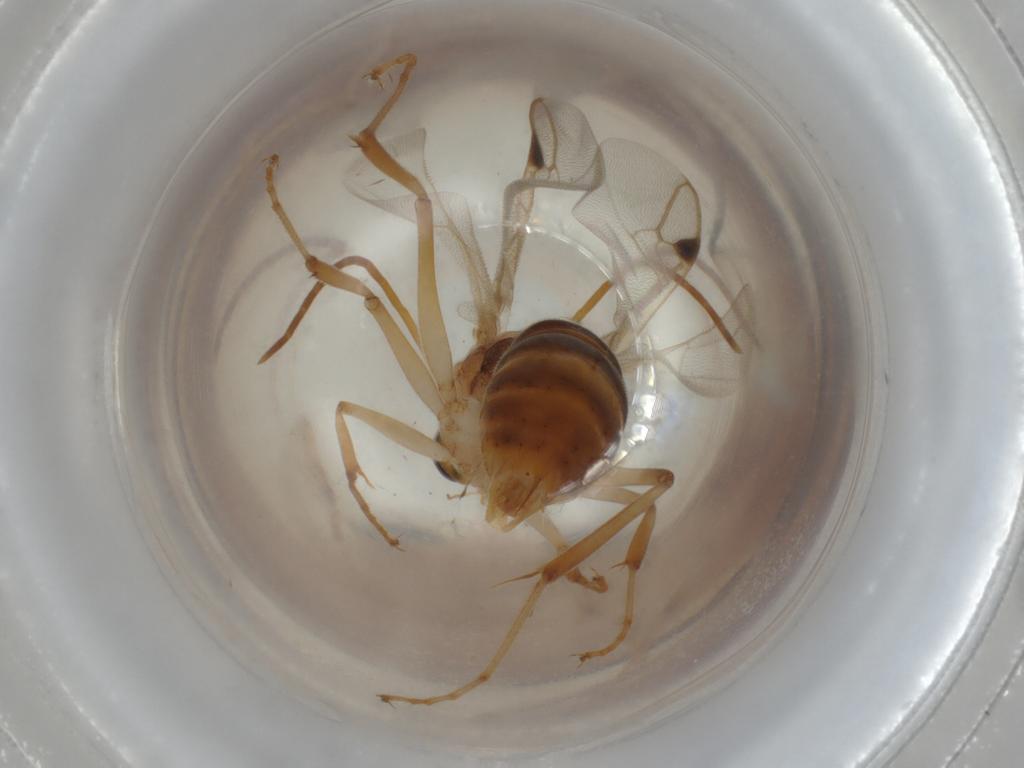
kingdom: Animalia
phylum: Arthropoda
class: Insecta
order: Hymenoptera
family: Formicidae
